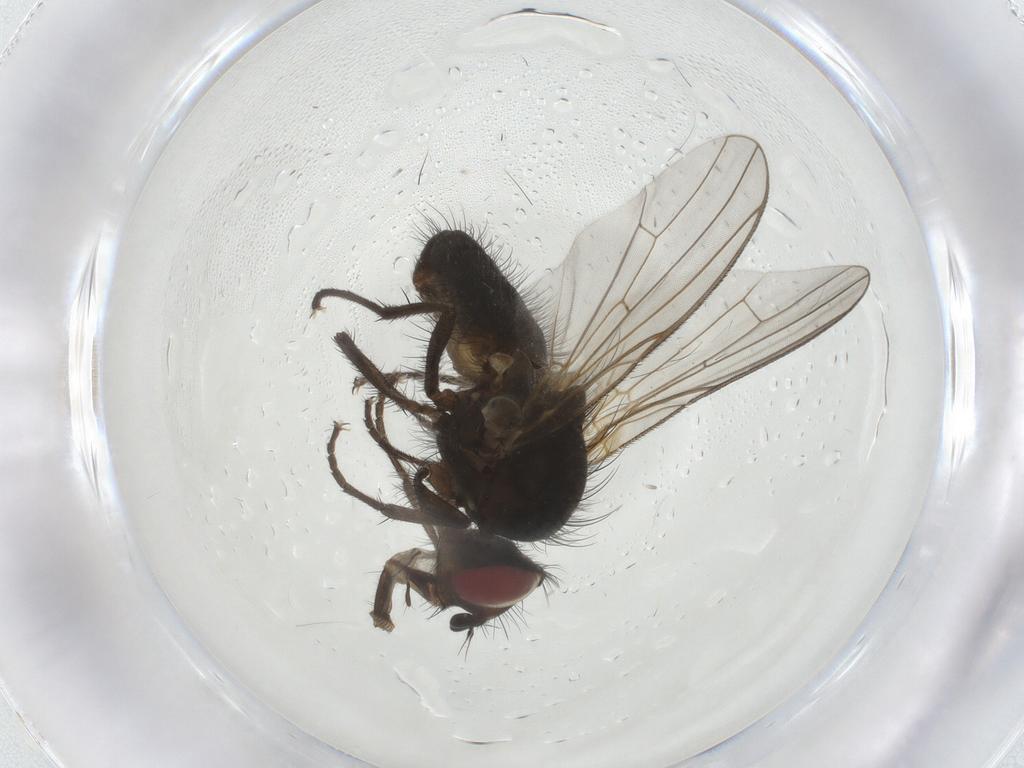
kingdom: Animalia
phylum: Arthropoda
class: Insecta
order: Diptera
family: Anthomyiidae
